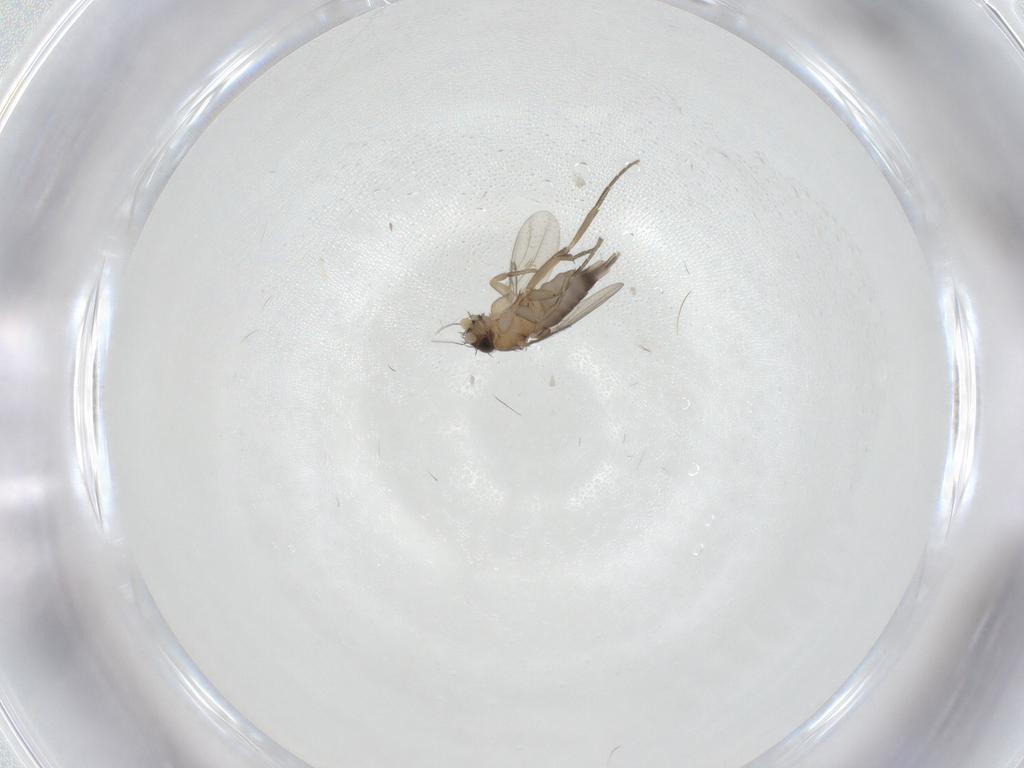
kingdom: Animalia
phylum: Arthropoda
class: Insecta
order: Diptera
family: Phoridae
